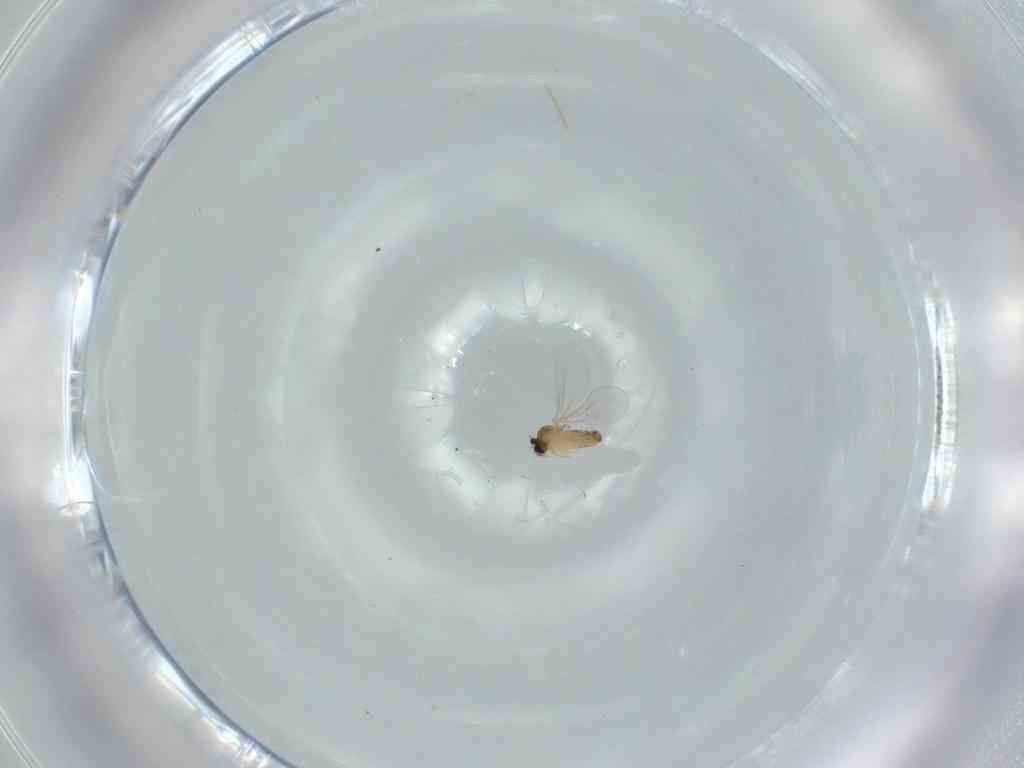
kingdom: Animalia
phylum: Arthropoda
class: Insecta
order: Diptera
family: Cecidomyiidae
